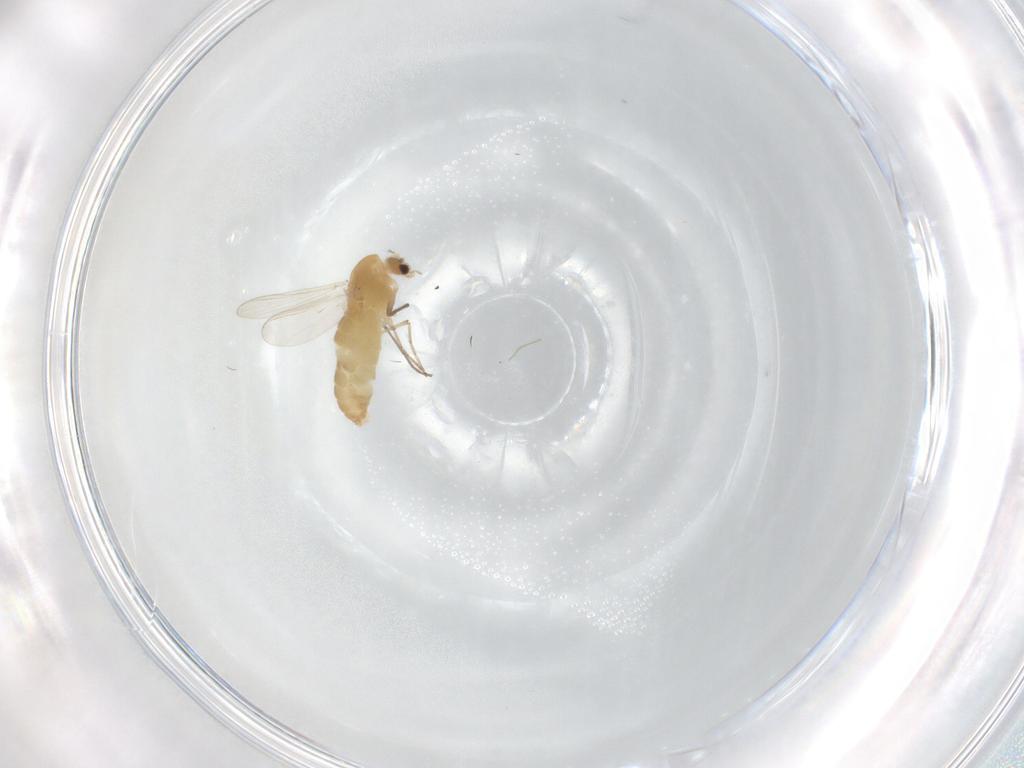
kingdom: Animalia
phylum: Arthropoda
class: Insecta
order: Diptera
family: Chironomidae
